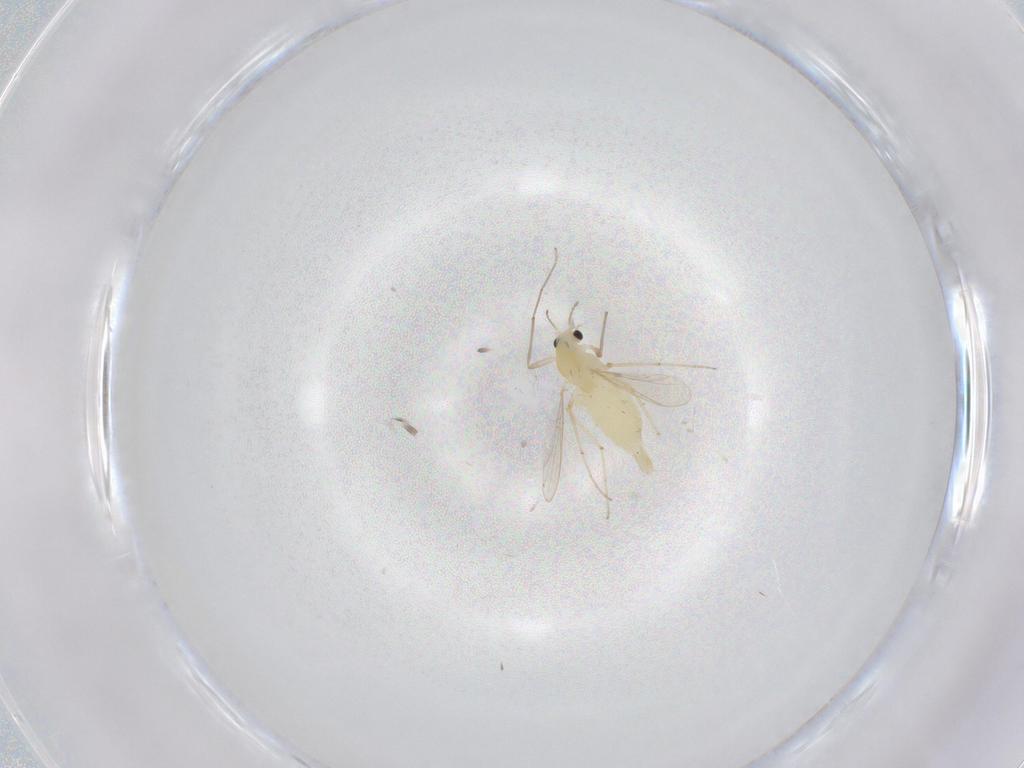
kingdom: Animalia
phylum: Arthropoda
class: Insecta
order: Diptera
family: Chironomidae
